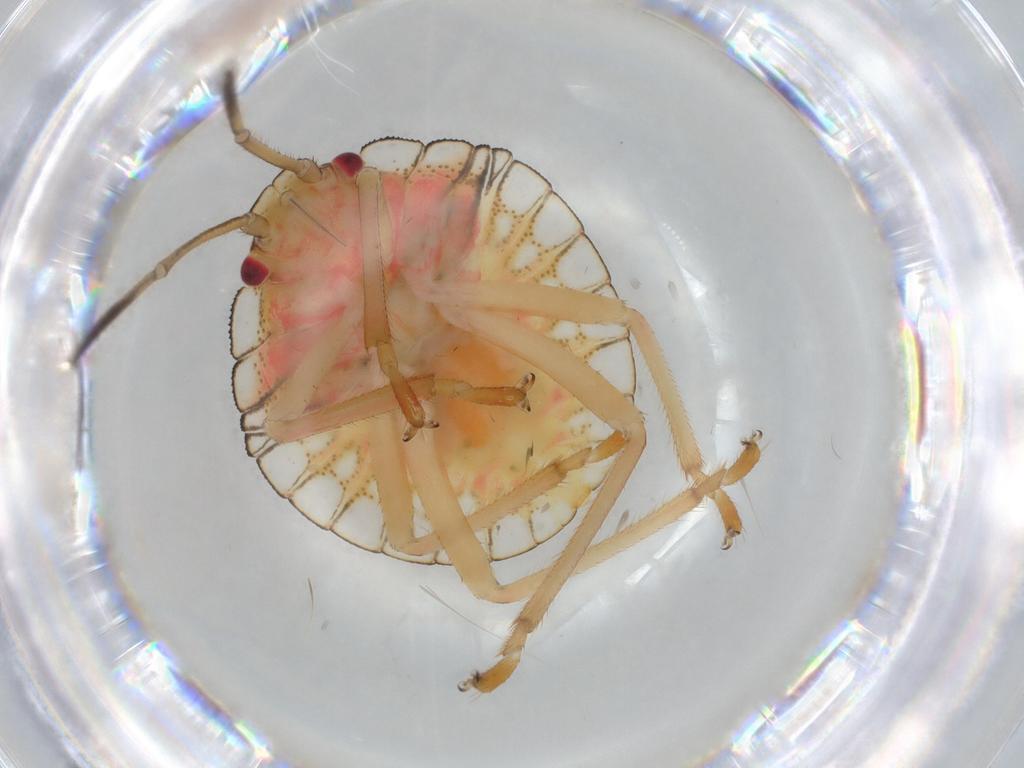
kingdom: Animalia
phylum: Arthropoda
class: Insecta
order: Hemiptera
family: Pentatomidae
